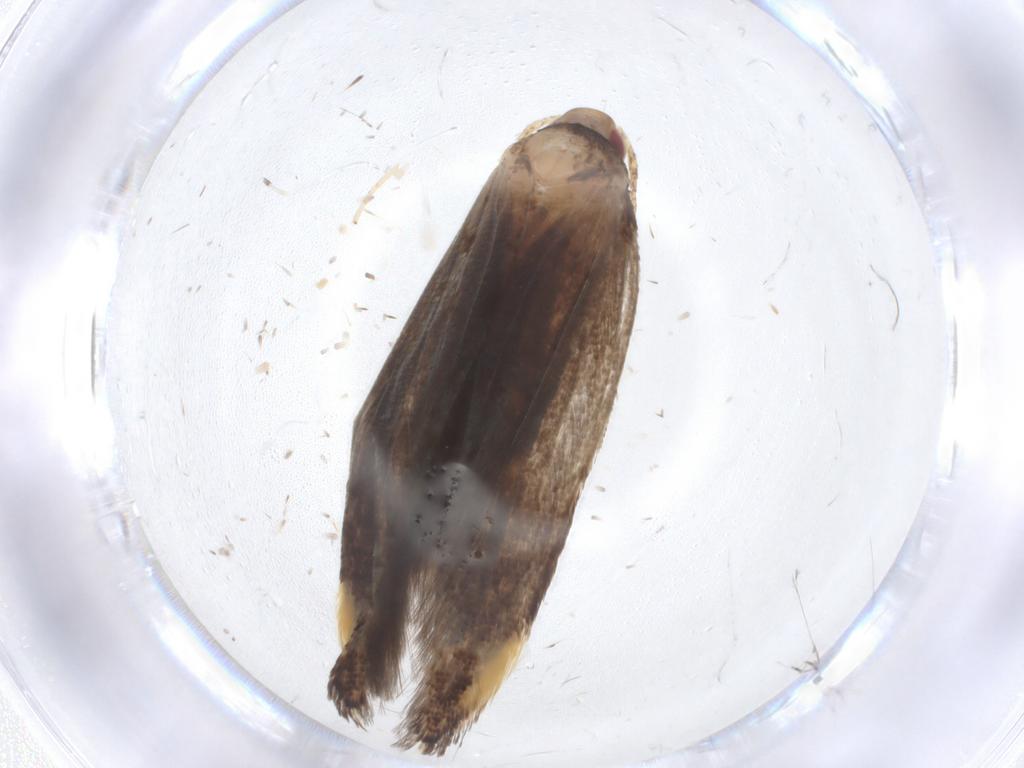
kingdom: Animalia
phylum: Arthropoda
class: Insecta
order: Lepidoptera
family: Cosmopterigidae
